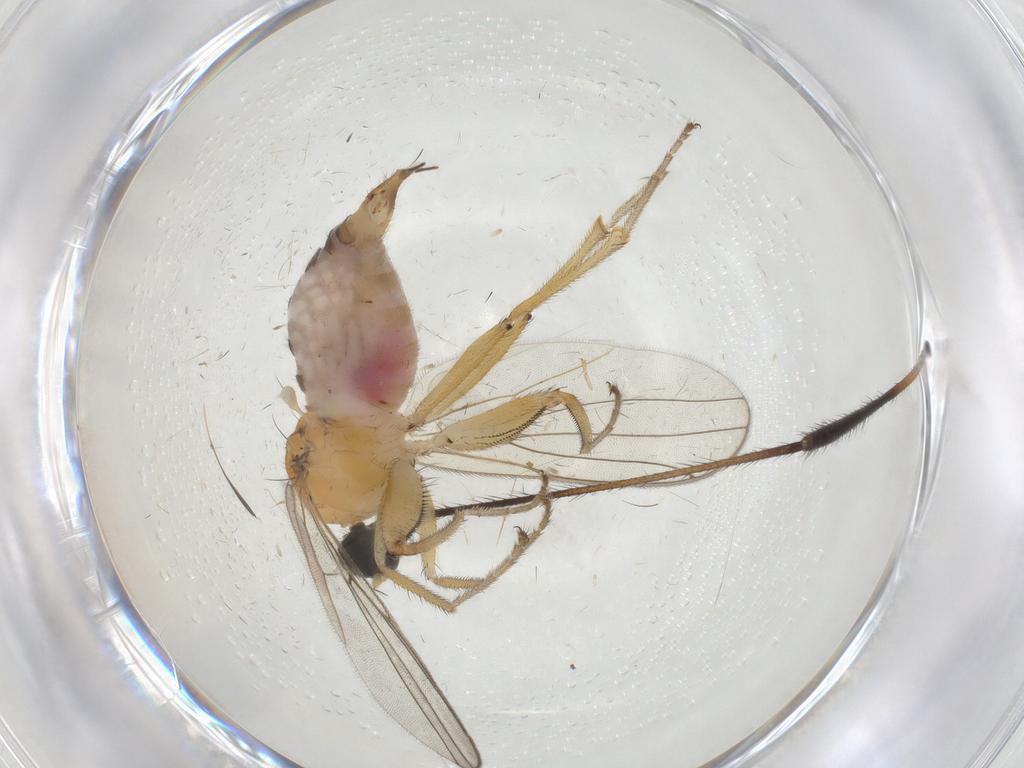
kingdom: Animalia
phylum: Arthropoda
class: Insecta
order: Diptera
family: Hybotidae
